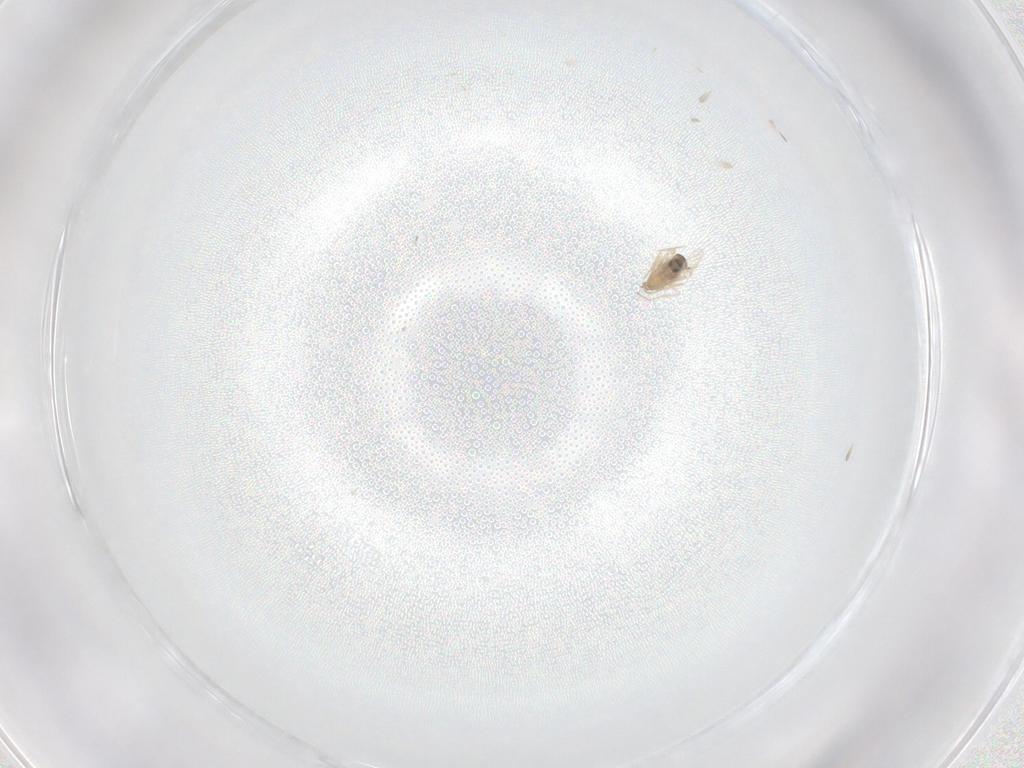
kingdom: Animalia
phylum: Arthropoda
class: Insecta
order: Diptera
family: Cecidomyiidae
